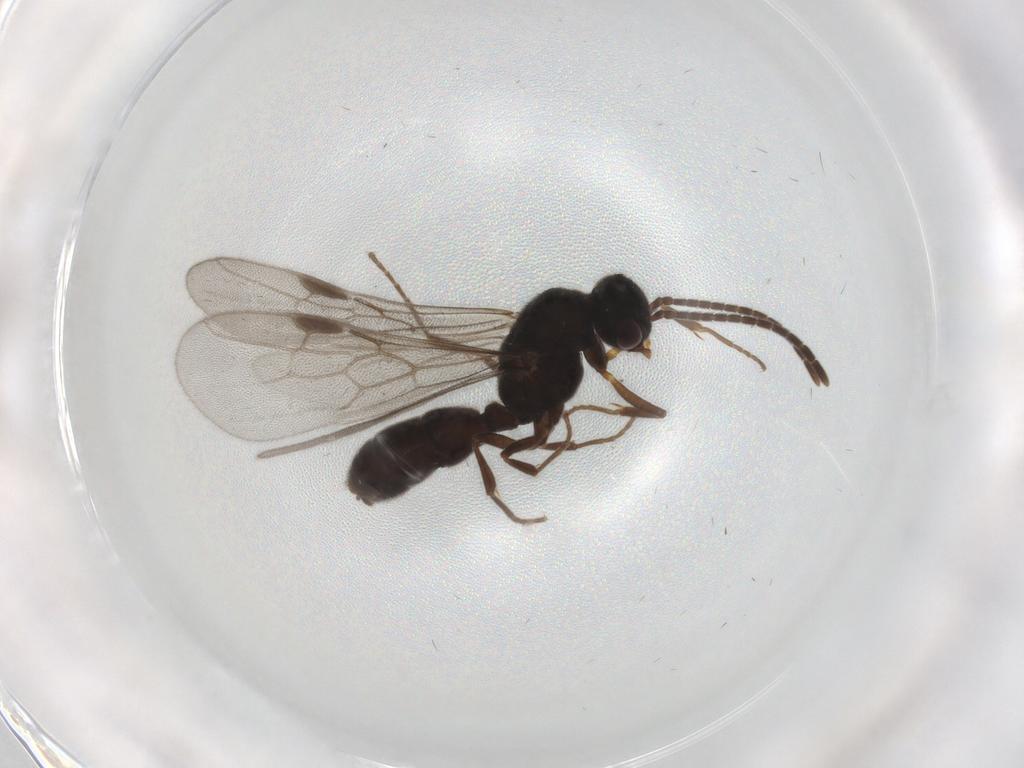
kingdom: Animalia
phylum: Arthropoda
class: Insecta
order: Hymenoptera
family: Formicidae
